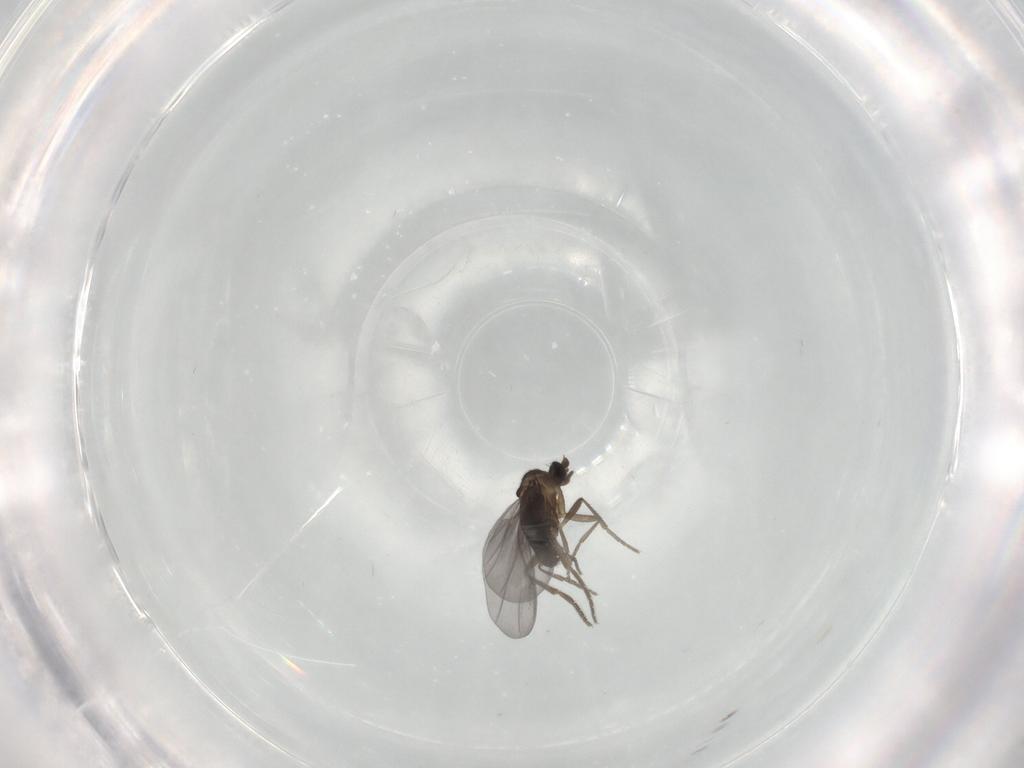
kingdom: Animalia
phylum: Arthropoda
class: Insecta
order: Diptera
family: Phoridae
